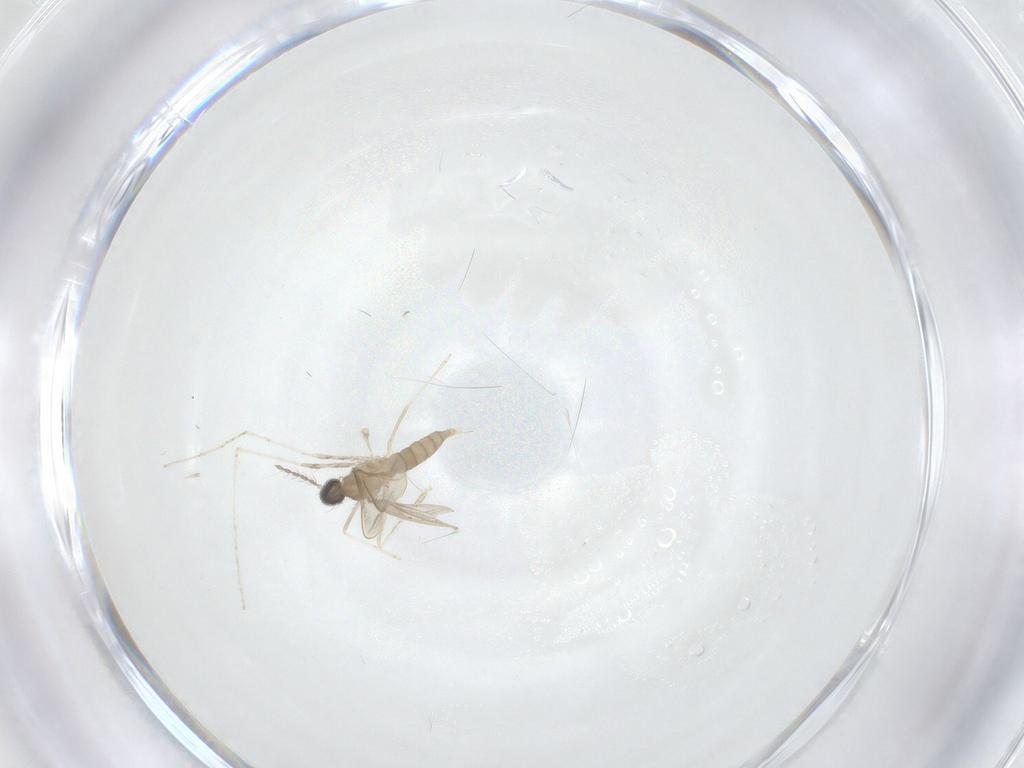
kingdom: Animalia
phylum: Arthropoda
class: Insecta
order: Diptera
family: Cecidomyiidae
